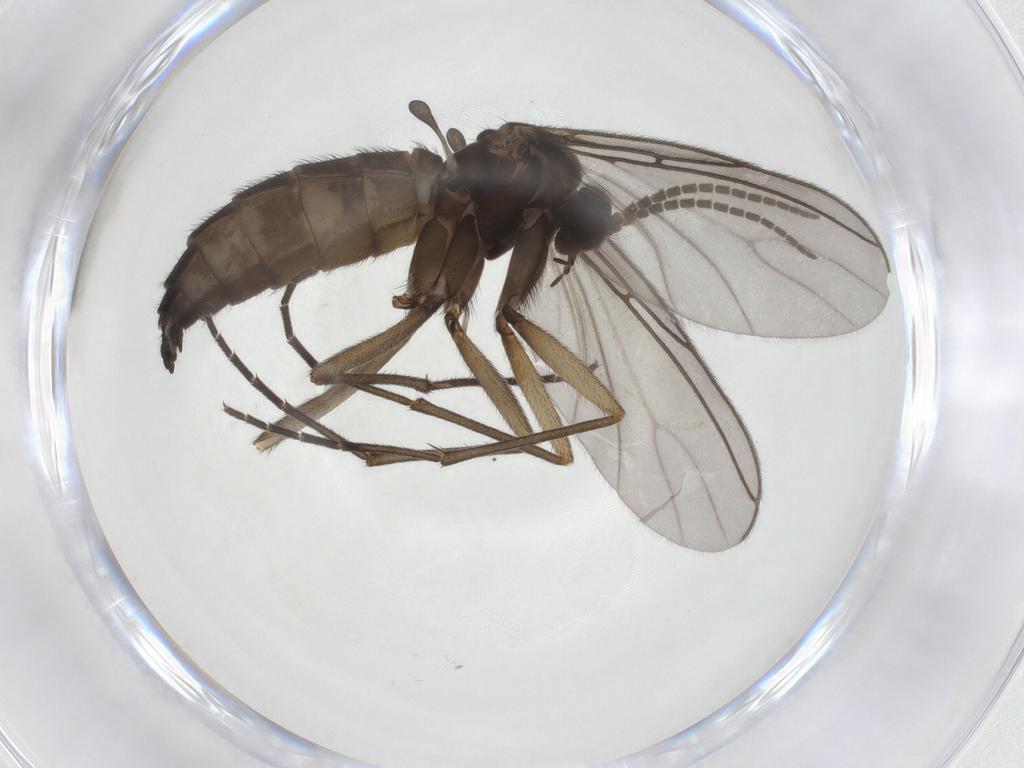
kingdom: Animalia
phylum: Arthropoda
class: Insecta
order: Diptera
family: Sciaridae
